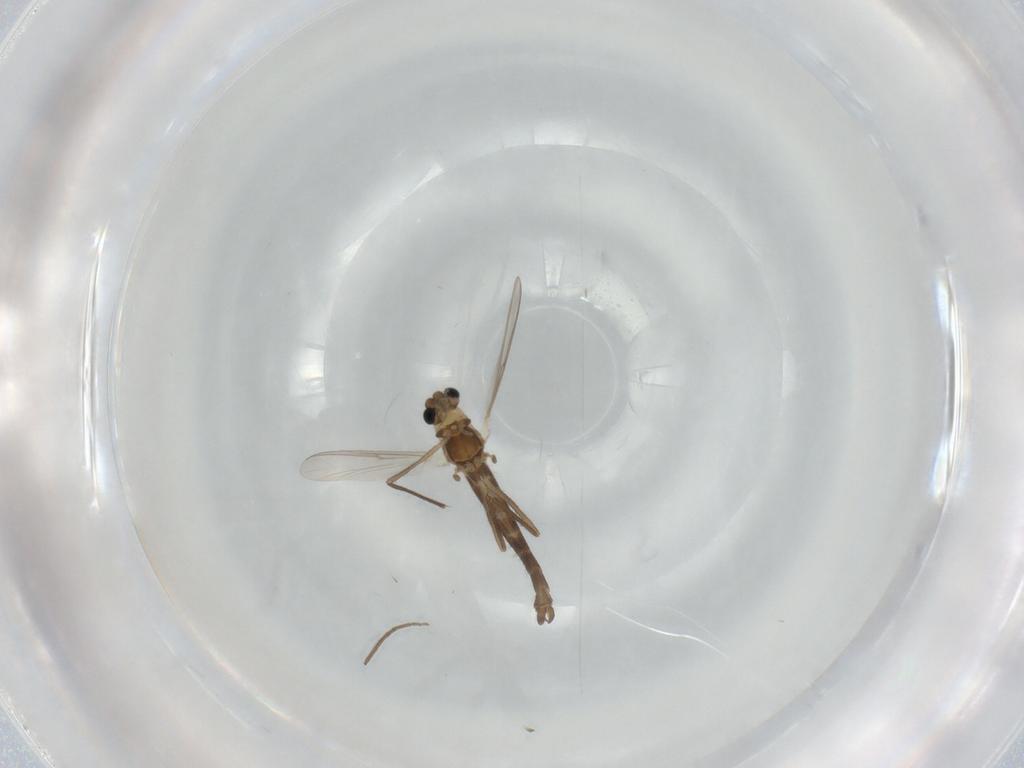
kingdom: Animalia
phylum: Arthropoda
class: Insecta
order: Diptera
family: Chironomidae
